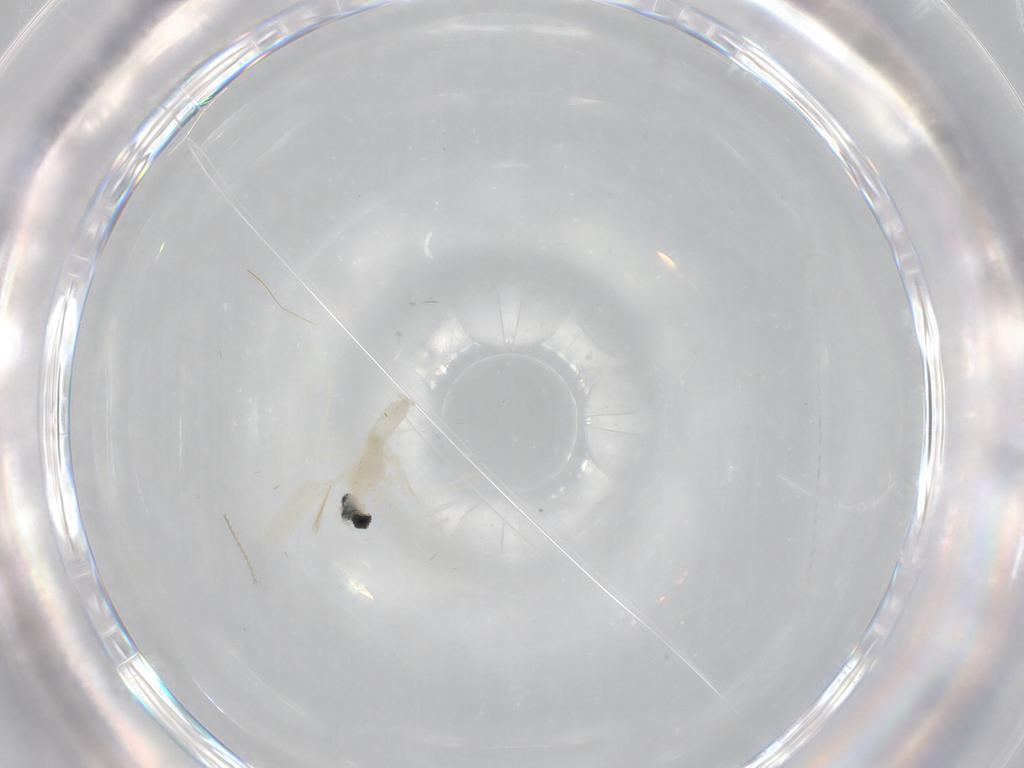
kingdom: Animalia
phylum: Arthropoda
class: Insecta
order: Diptera
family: Cecidomyiidae
